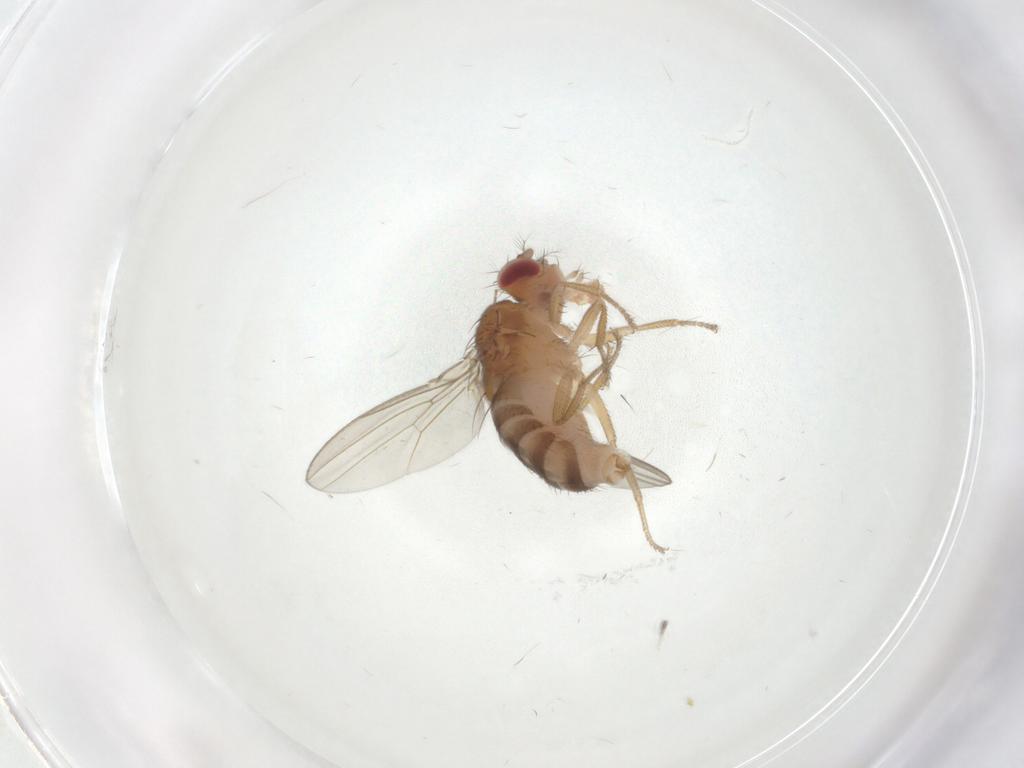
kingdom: Animalia
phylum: Arthropoda
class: Insecta
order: Diptera
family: Drosophilidae
